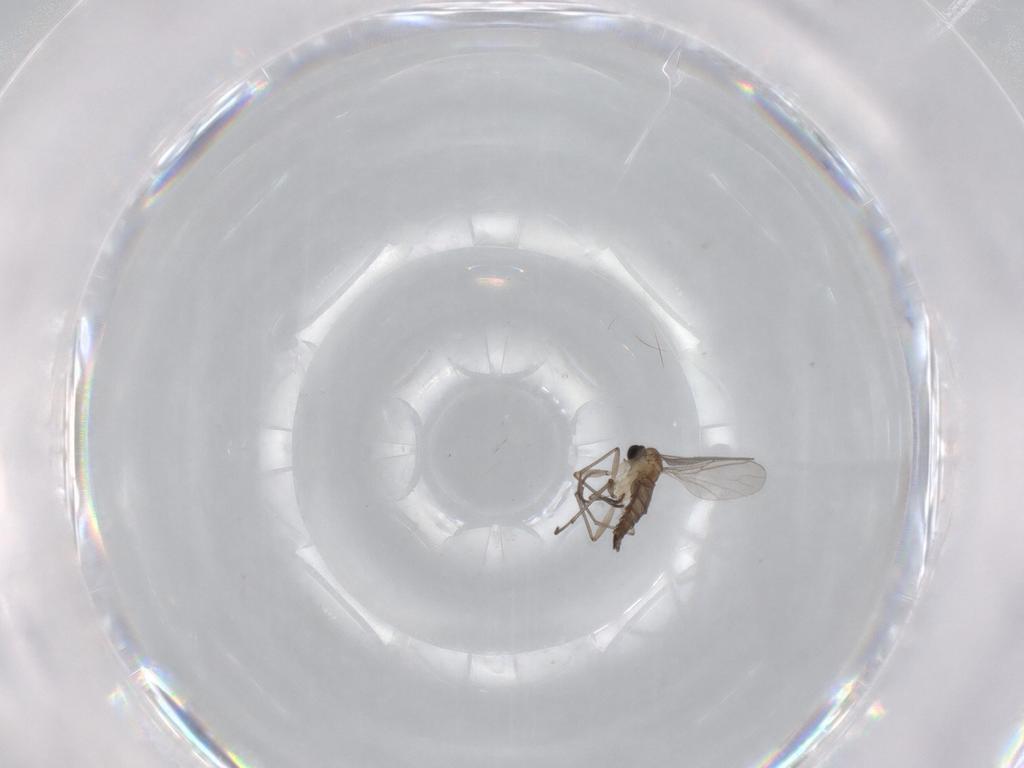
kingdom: Animalia
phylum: Arthropoda
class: Insecta
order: Diptera
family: Sciaridae
